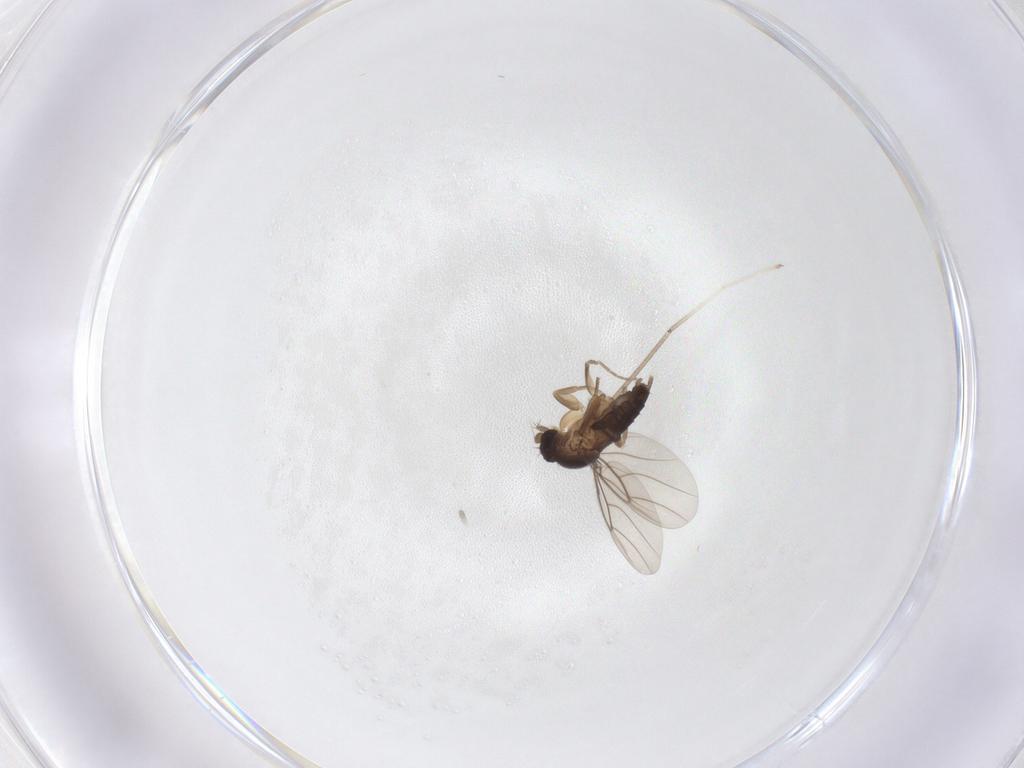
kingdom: Animalia
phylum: Arthropoda
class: Insecta
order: Diptera
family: Phoridae
